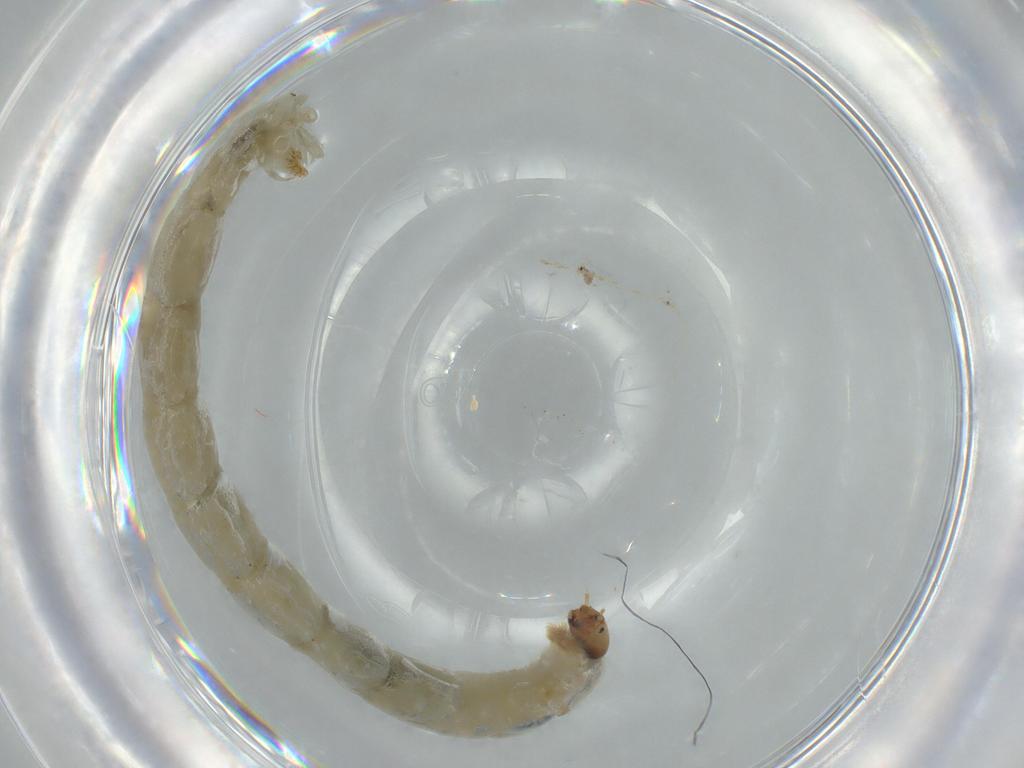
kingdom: Animalia
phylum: Arthropoda
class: Insecta
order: Diptera
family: Chironomidae
